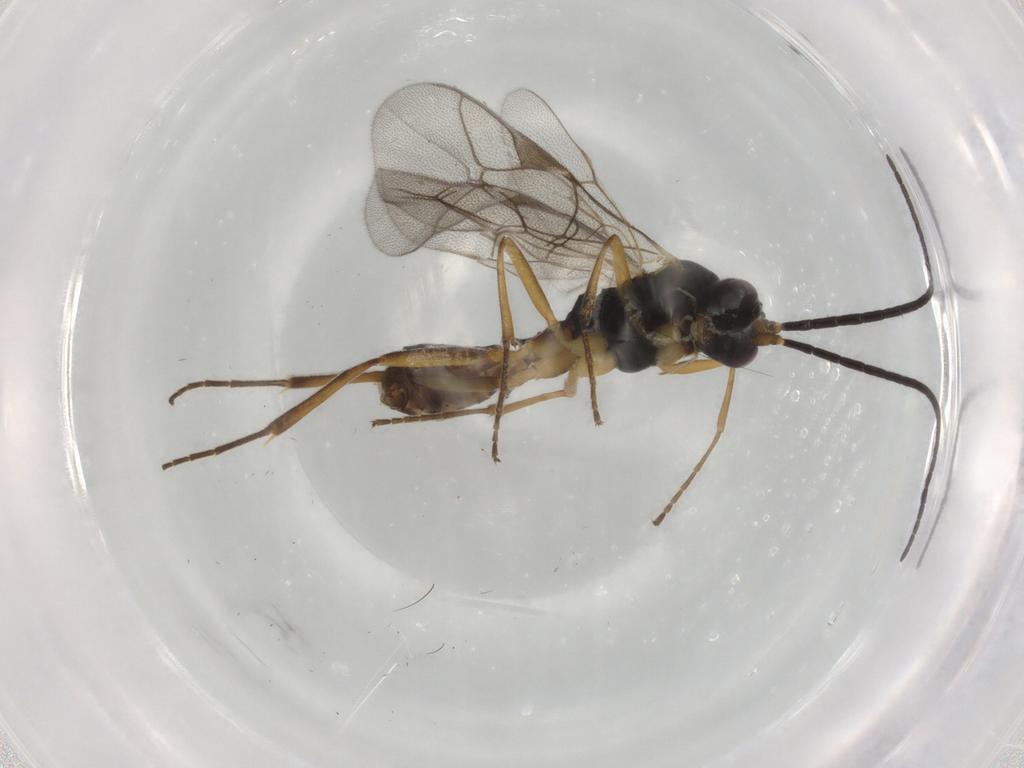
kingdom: Animalia
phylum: Arthropoda
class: Insecta
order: Hymenoptera
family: Ichneumonidae
